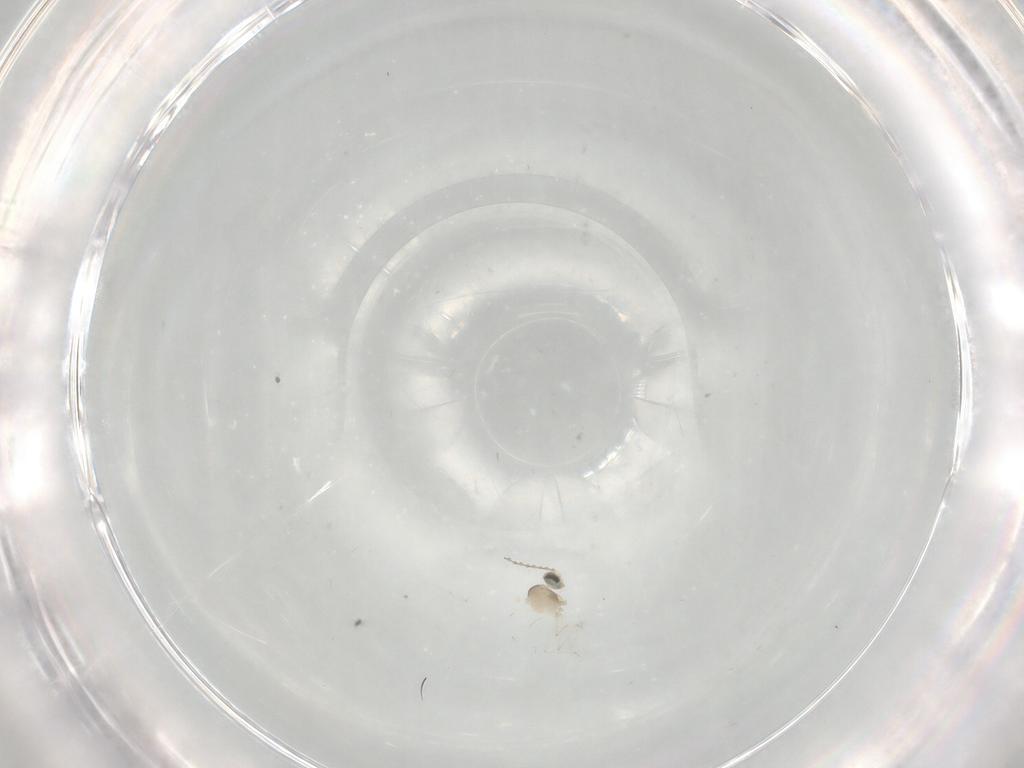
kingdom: Animalia
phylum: Arthropoda
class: Insecta
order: Diptera
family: Cecidomyiidae
